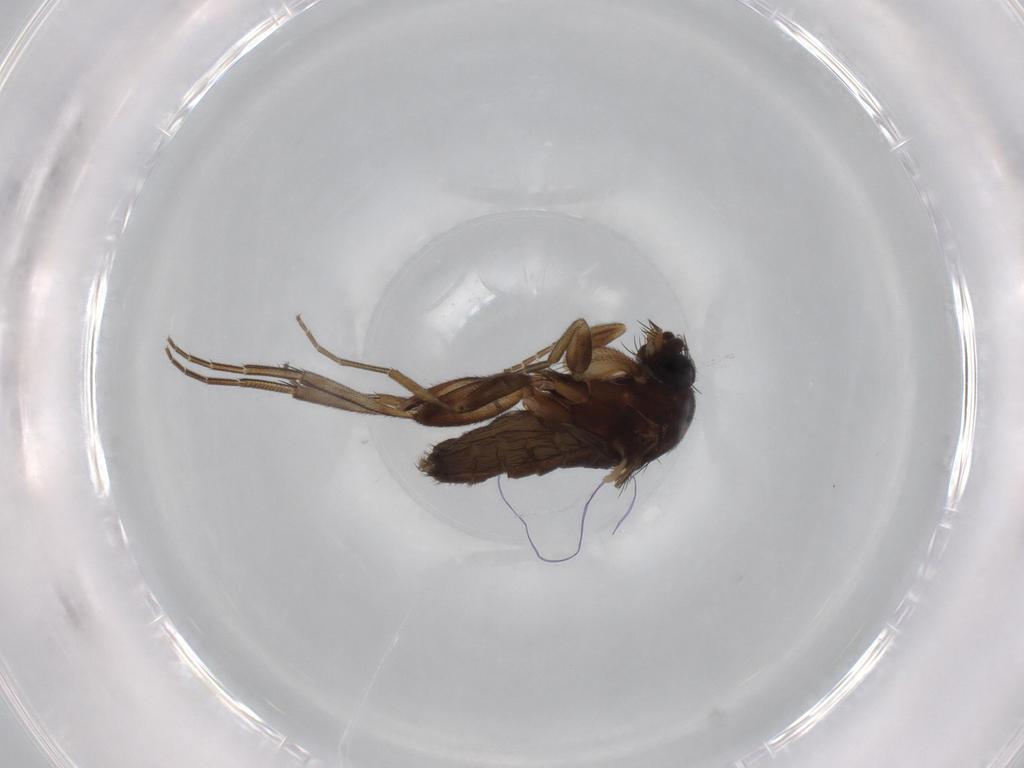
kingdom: Animalia
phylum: Arthropoda
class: Insecta
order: Diptera
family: Phoridae
